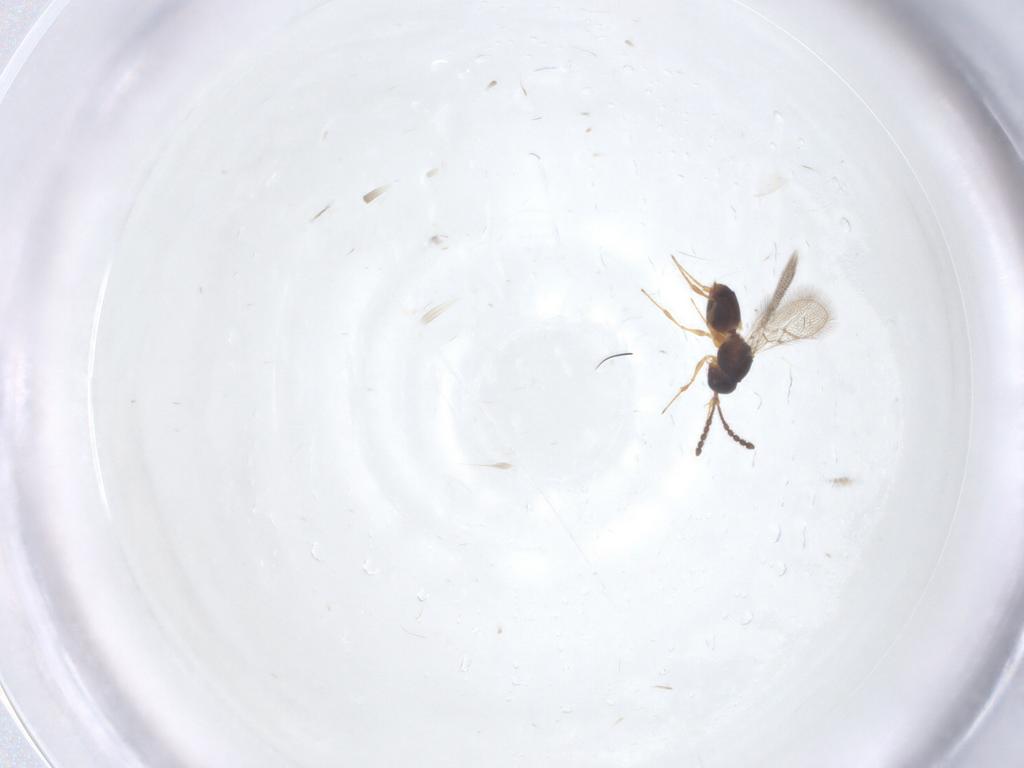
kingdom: Animalia
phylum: Arthropoda
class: Insecta
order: Hymenoptera
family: Figitidae
